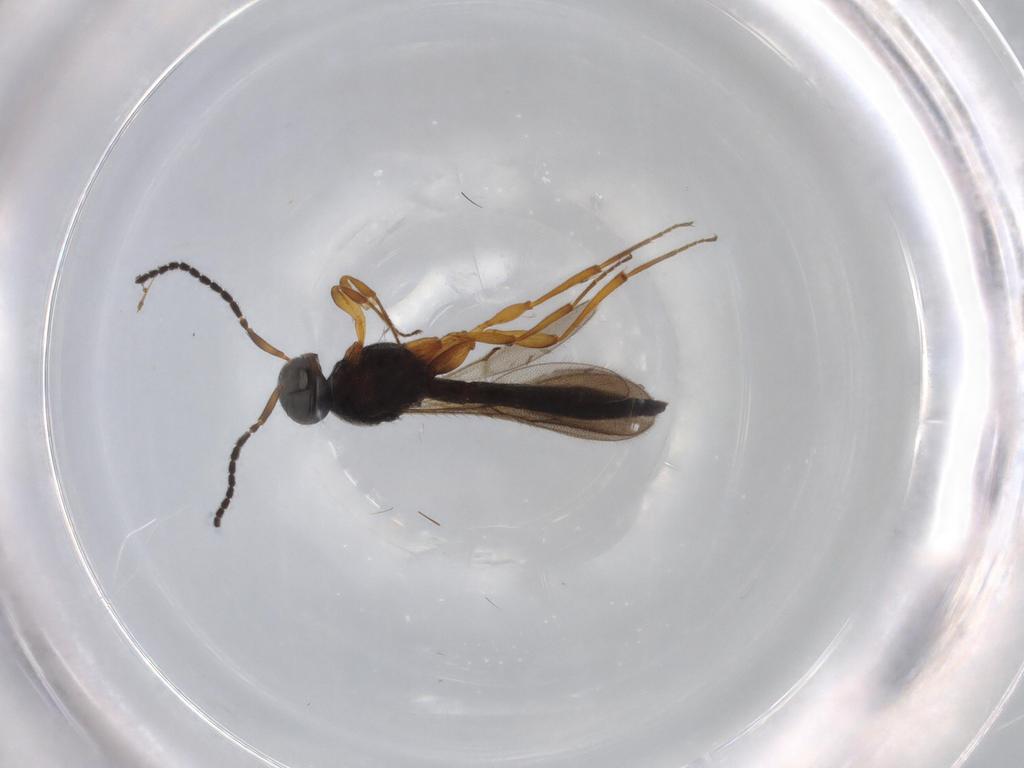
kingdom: Animalia
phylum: Arthropoda
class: Insecta
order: Hymenoptera
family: Scelionidae
